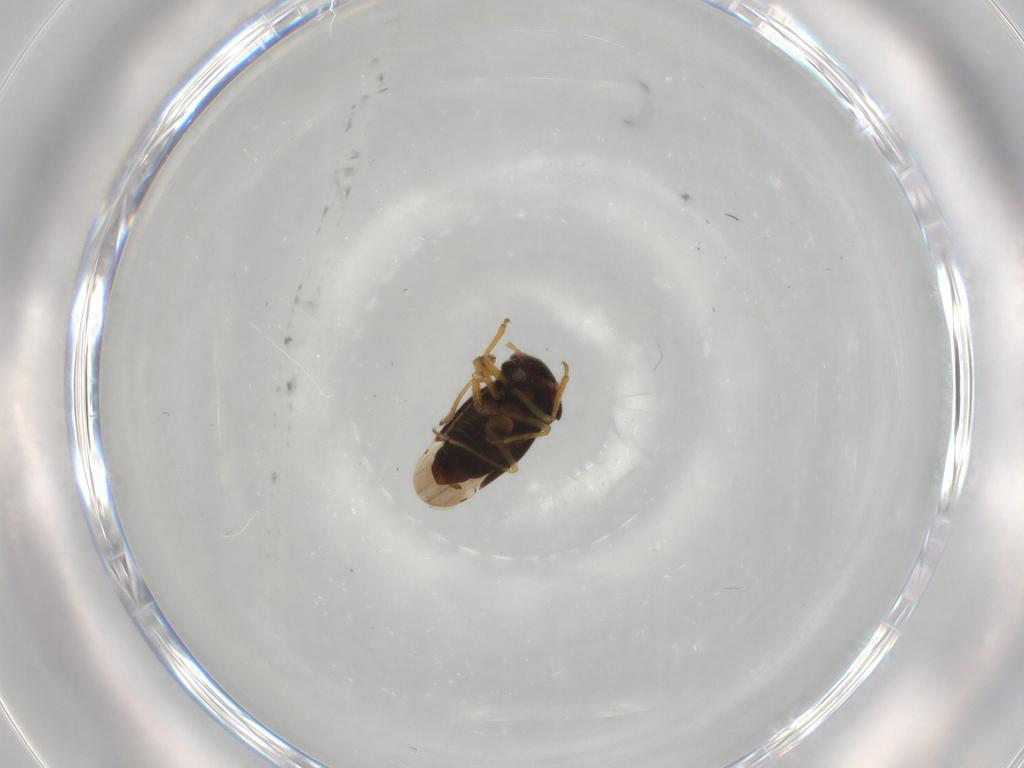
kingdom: Animalia
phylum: Arthropoda
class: Insecta
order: Hemiptera
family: Schizopteridae
